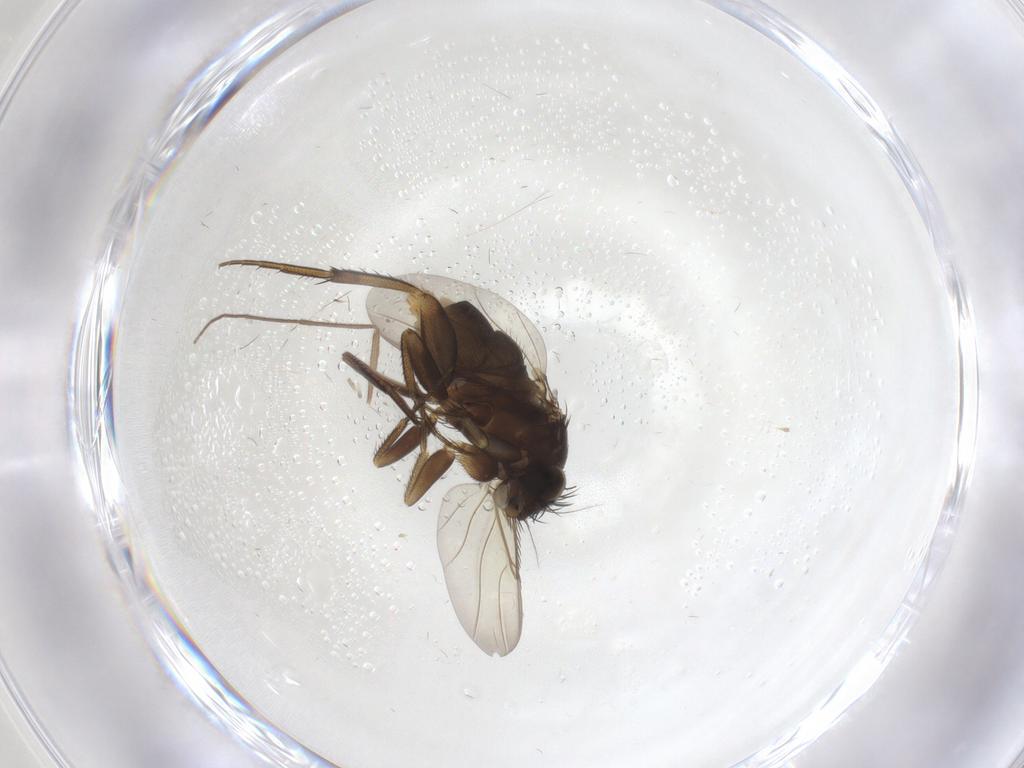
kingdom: Animalia
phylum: Arthropoda
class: Insecta
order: Diptera
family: Phoridae
